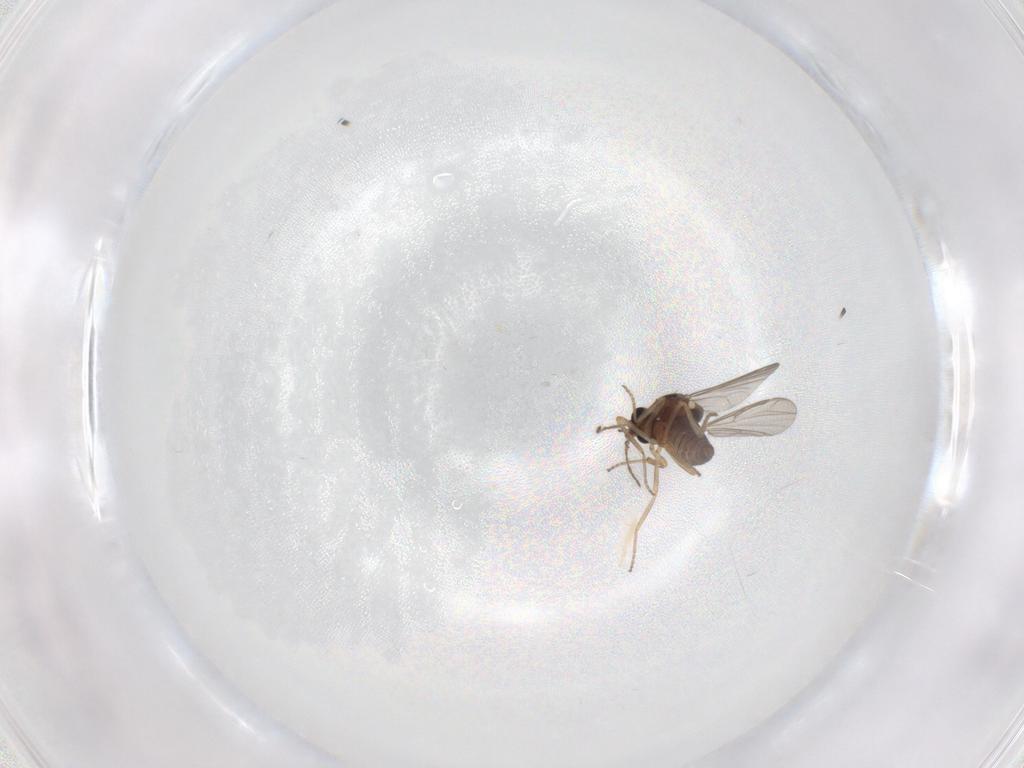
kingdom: Animalia
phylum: Arthropoda
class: Insecta
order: Diptera
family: Ceratopogonidae
